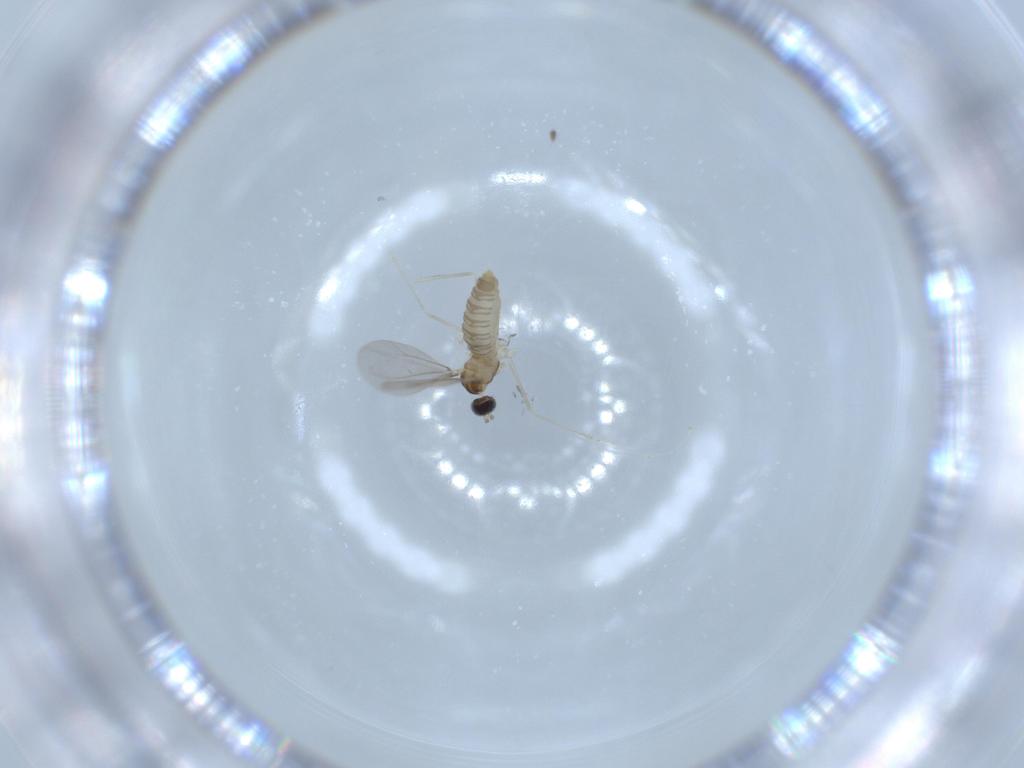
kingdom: Animalia
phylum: Arthropoda
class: Insecta
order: Diptera
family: Cecidomyiidae
